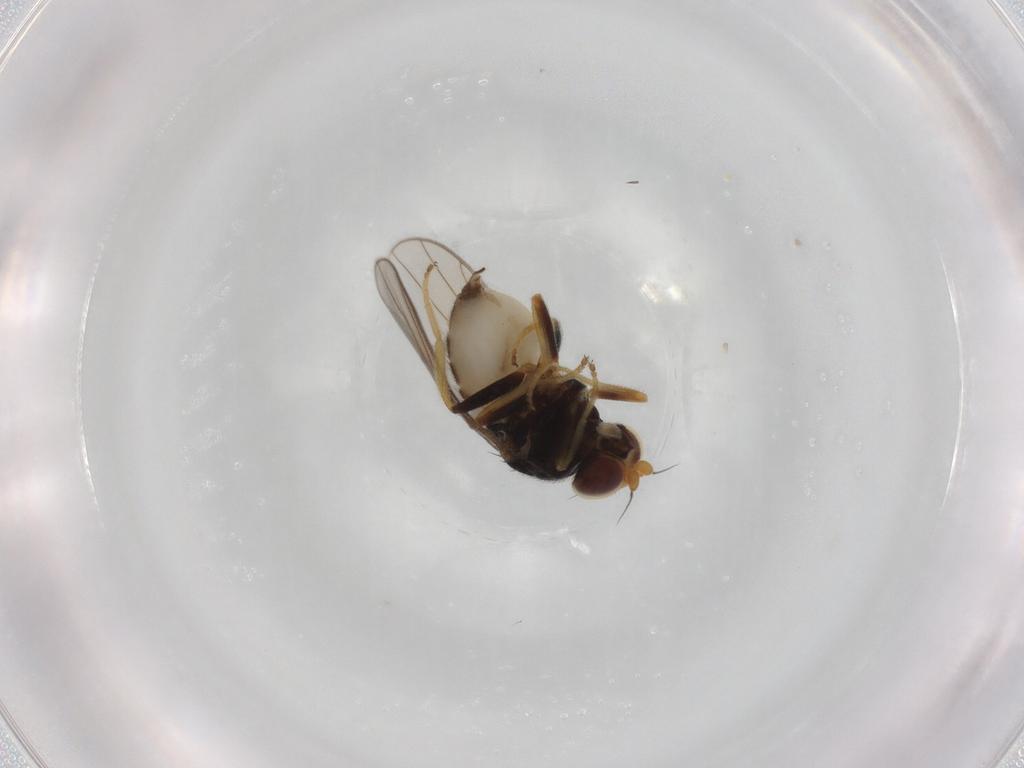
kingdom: Animalia
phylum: Arthropoda
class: Insecta
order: Diptera
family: Chloropidae
